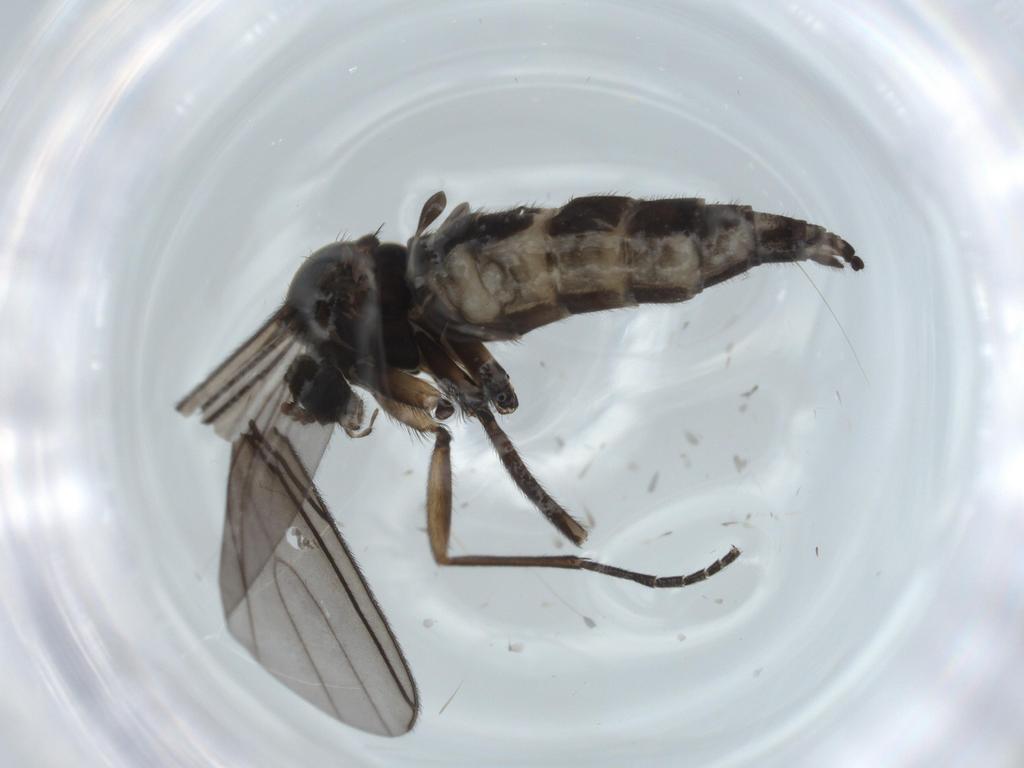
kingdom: Animalia
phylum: Arthropoda
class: Insecta
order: Diptera
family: Sciaridae
